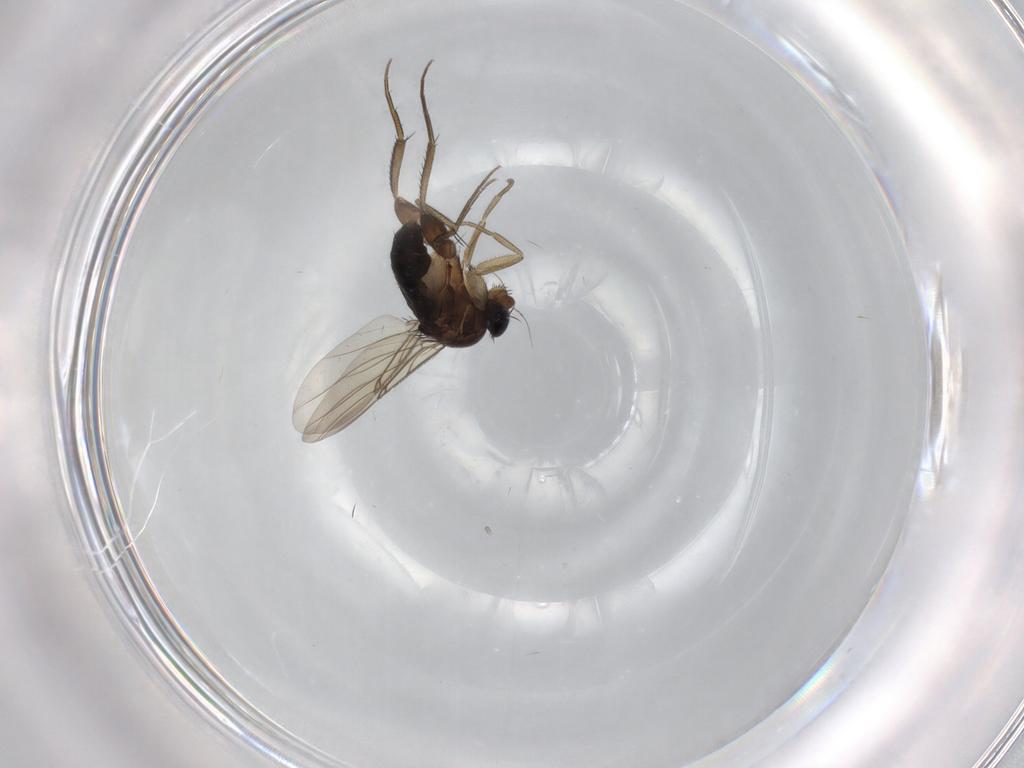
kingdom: Animalia
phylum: Arthropoda
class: Insecta
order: Diptera
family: Phoridae
